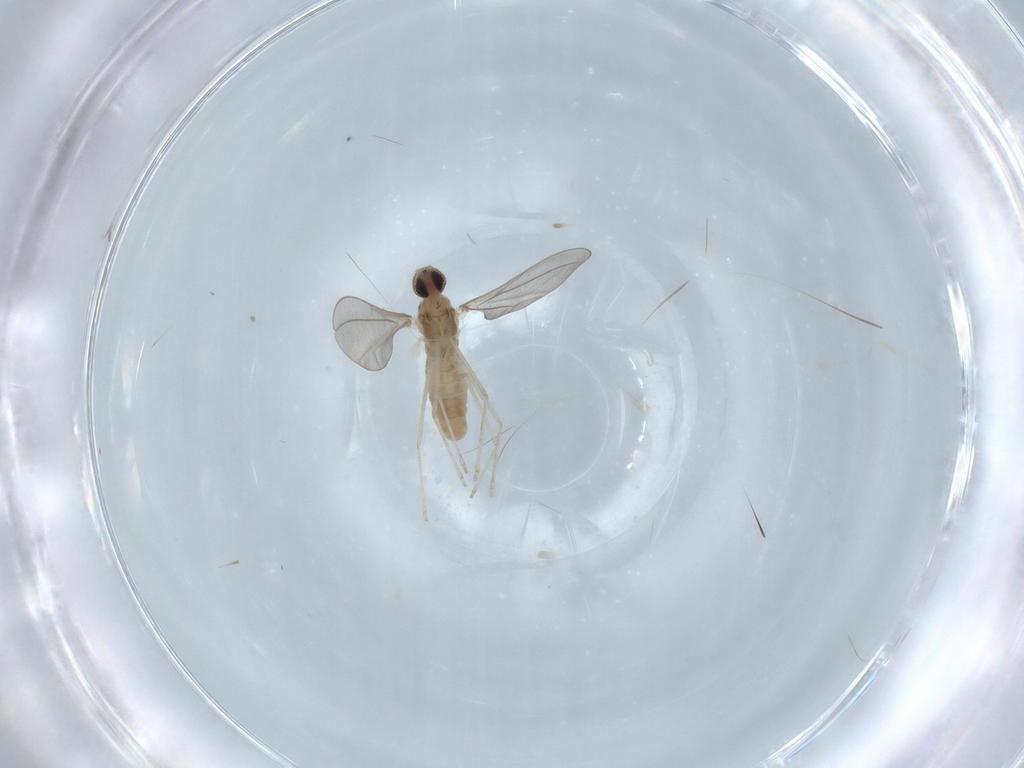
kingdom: Animalia
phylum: Arthropoda
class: Insecta
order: Diptera
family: Cecidomyiidae
